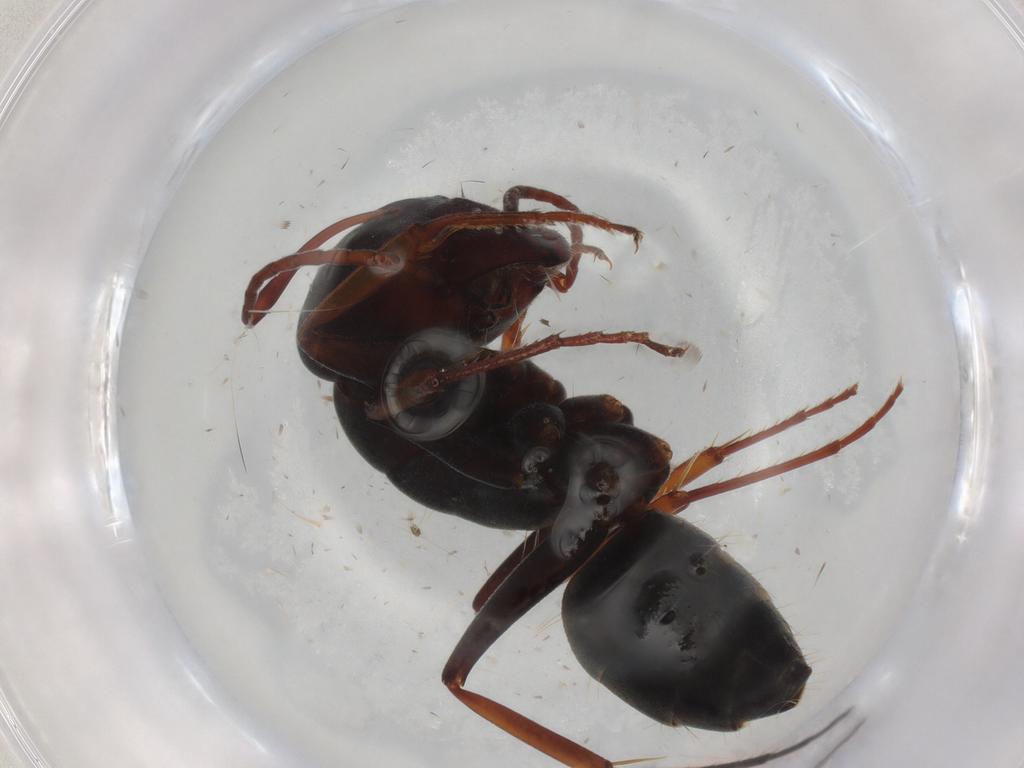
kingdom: Animalia
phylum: Arthropoda
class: Insecta
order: Hymenoptera
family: Formicidae
